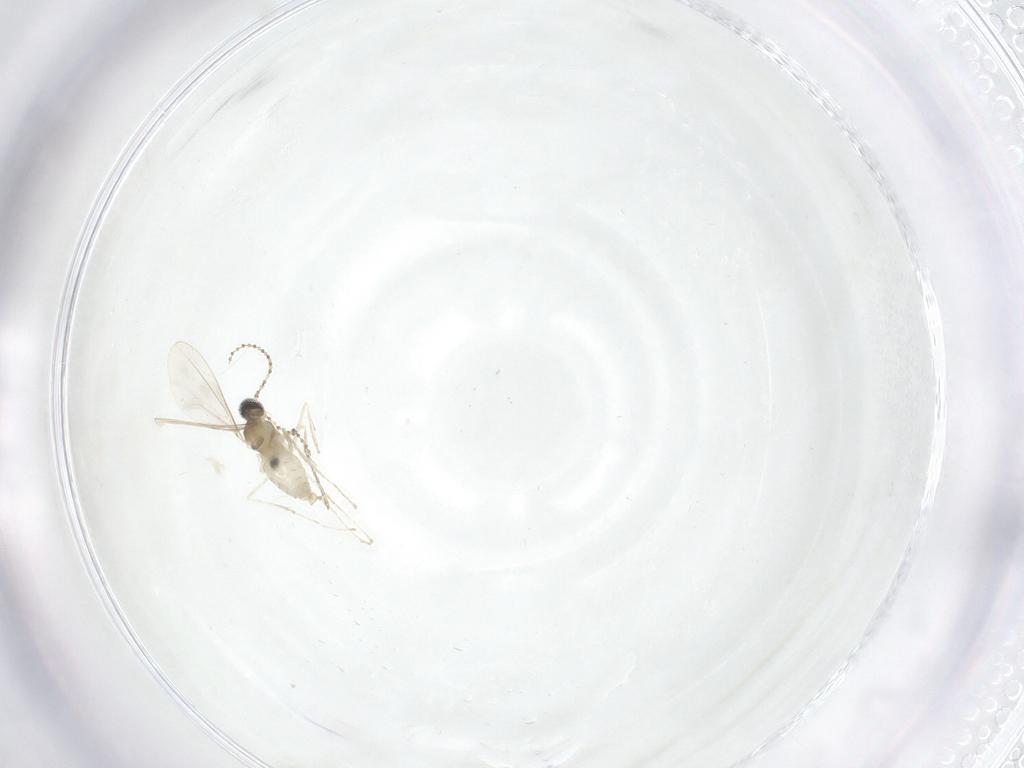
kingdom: Animalia
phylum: Arthropoda
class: Insecta
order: Diptera
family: Cecidomyiidae
